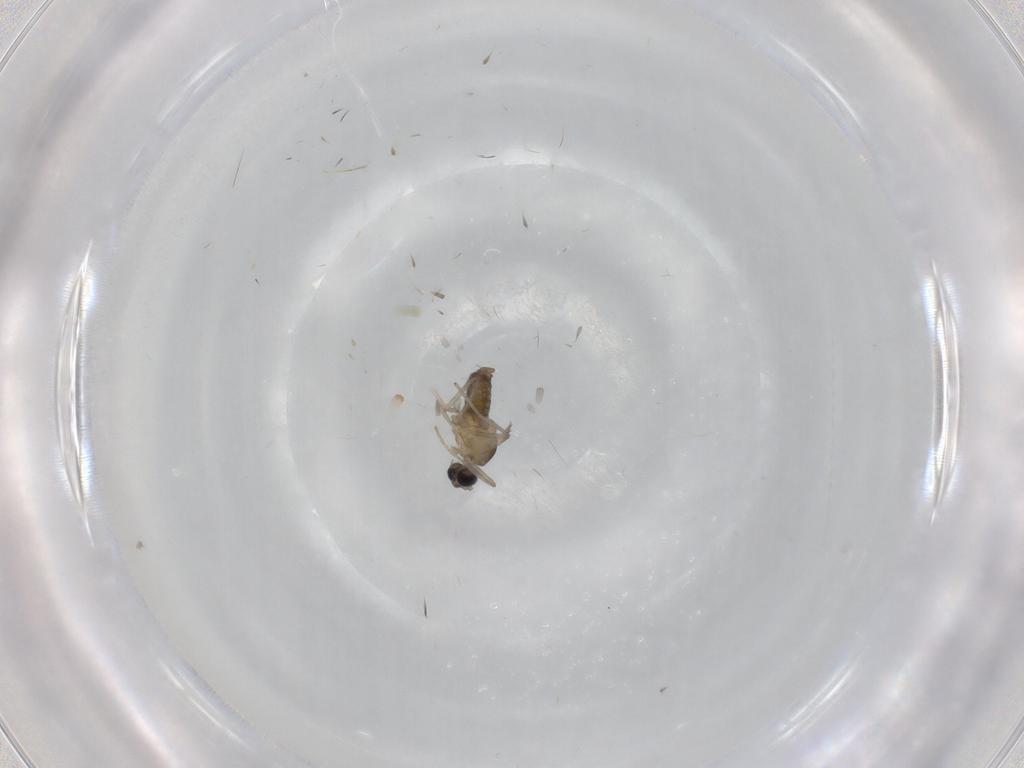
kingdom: Animalia
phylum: Arthropoda
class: Insecta
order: Diptera
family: Cecidomyiidae
